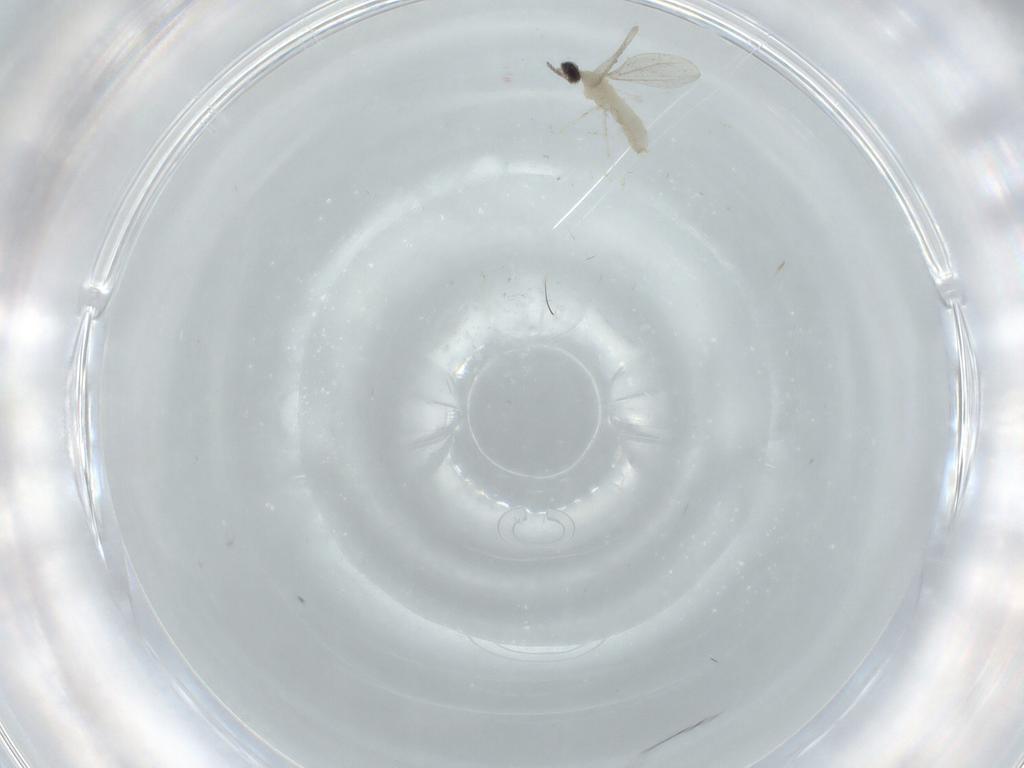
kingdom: Animalia
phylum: Arthropoda
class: Insecta
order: Diptera
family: Cecidomyiidae
